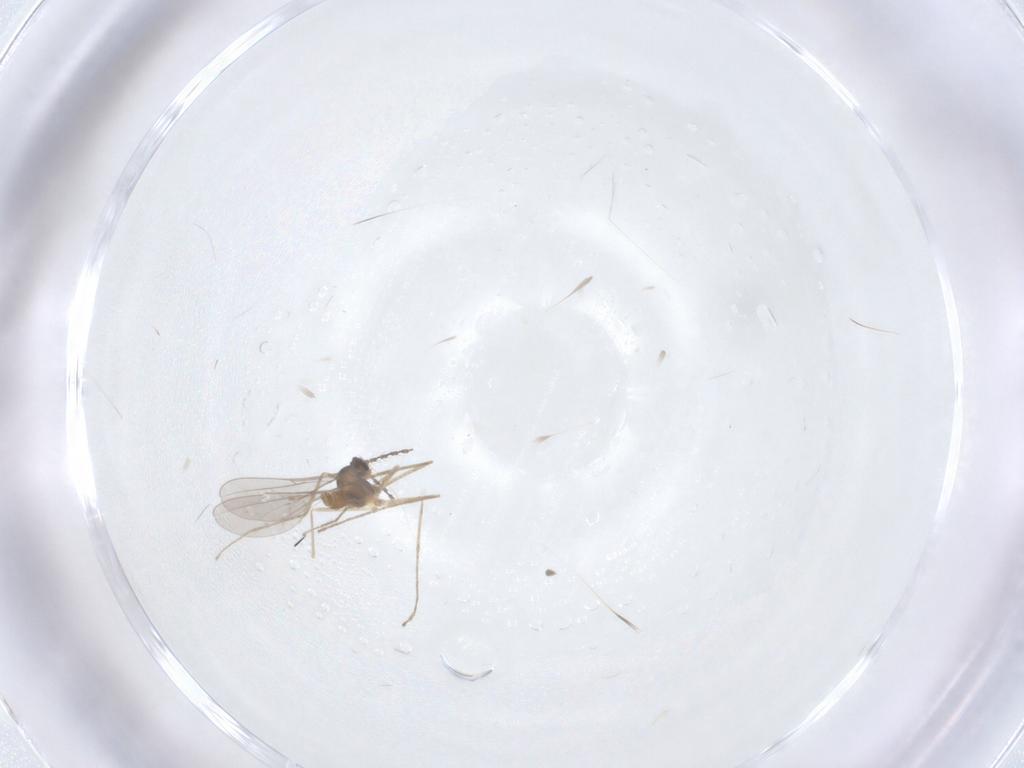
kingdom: Animalia
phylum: Arthropoda
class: Insecta
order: Diptera
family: Cecidomyiidae
